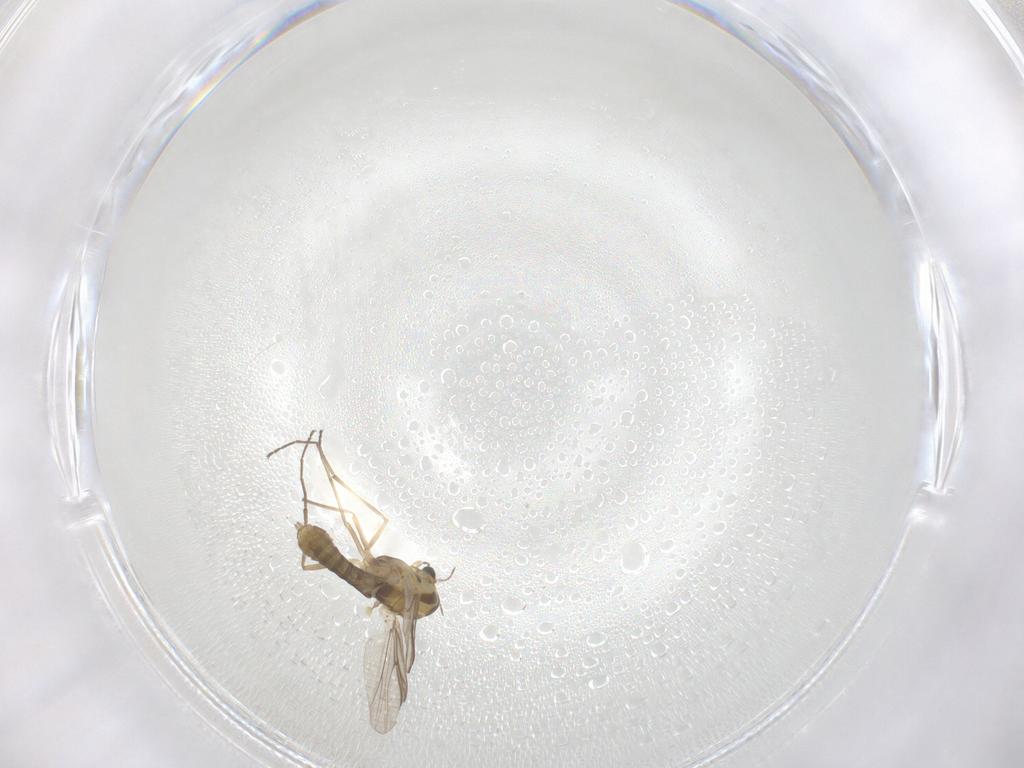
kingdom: Animalia
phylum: Arthropoda
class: Insecta
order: Diptera
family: Chironomidae
